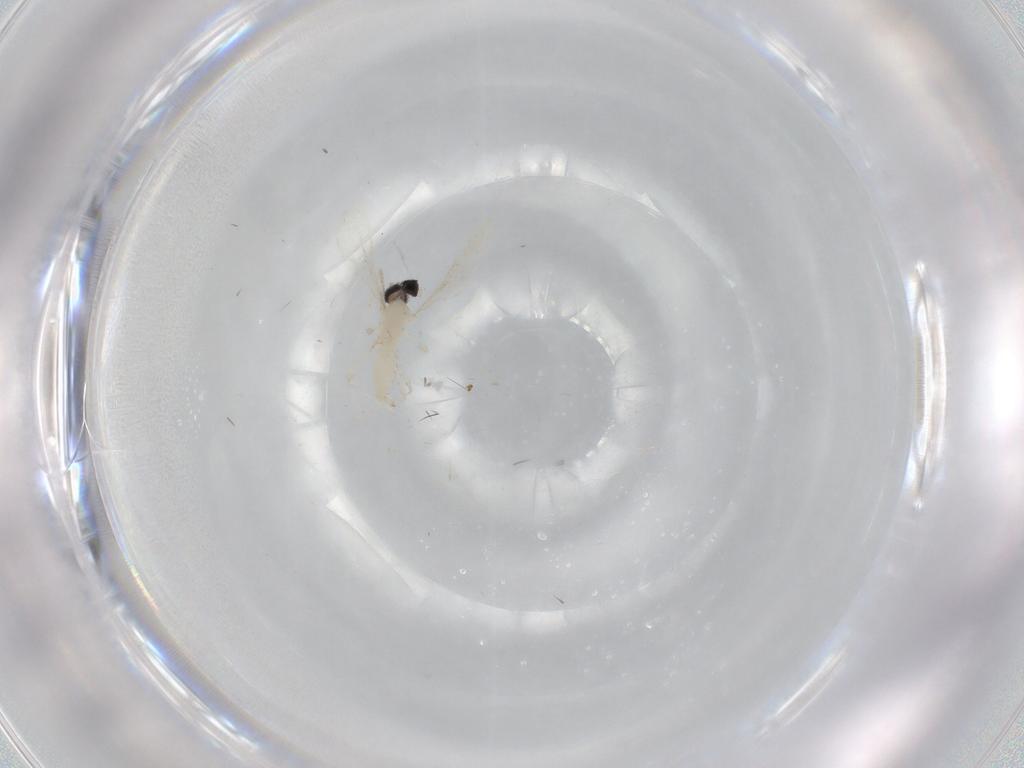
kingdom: Animalia
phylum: Arthropoda
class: Insecta
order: Diptera
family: Cecidomyiidae
